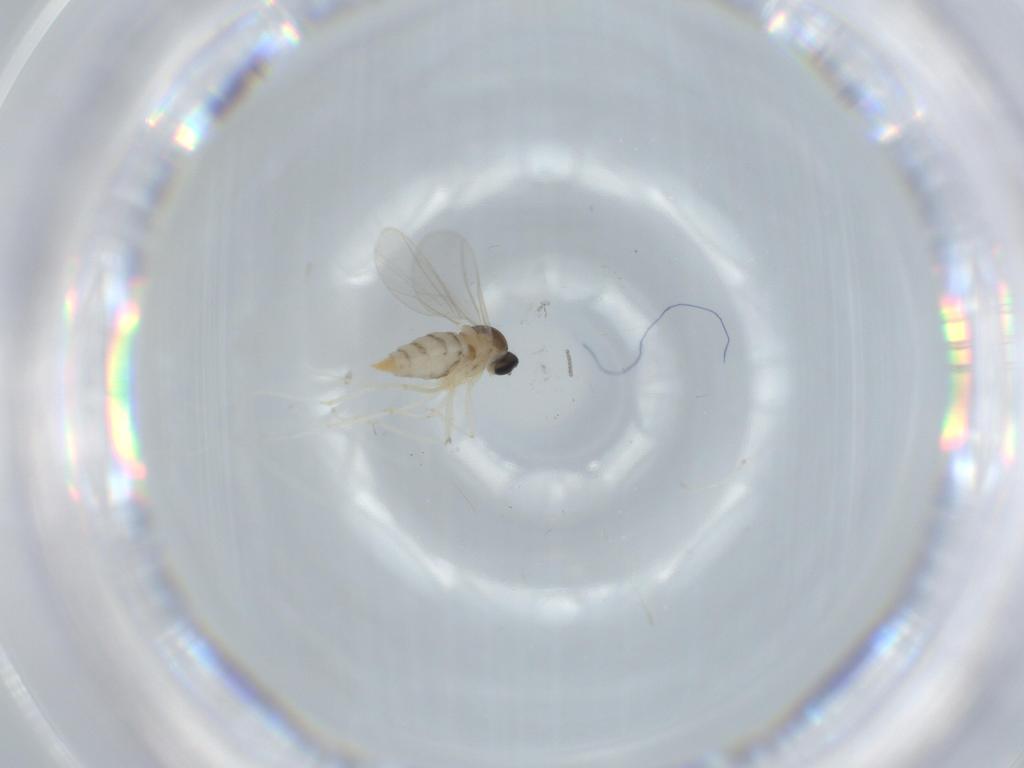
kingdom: Animalia
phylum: Arthropoda
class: Insecta
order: Diptera
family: Cecidomyiidae
